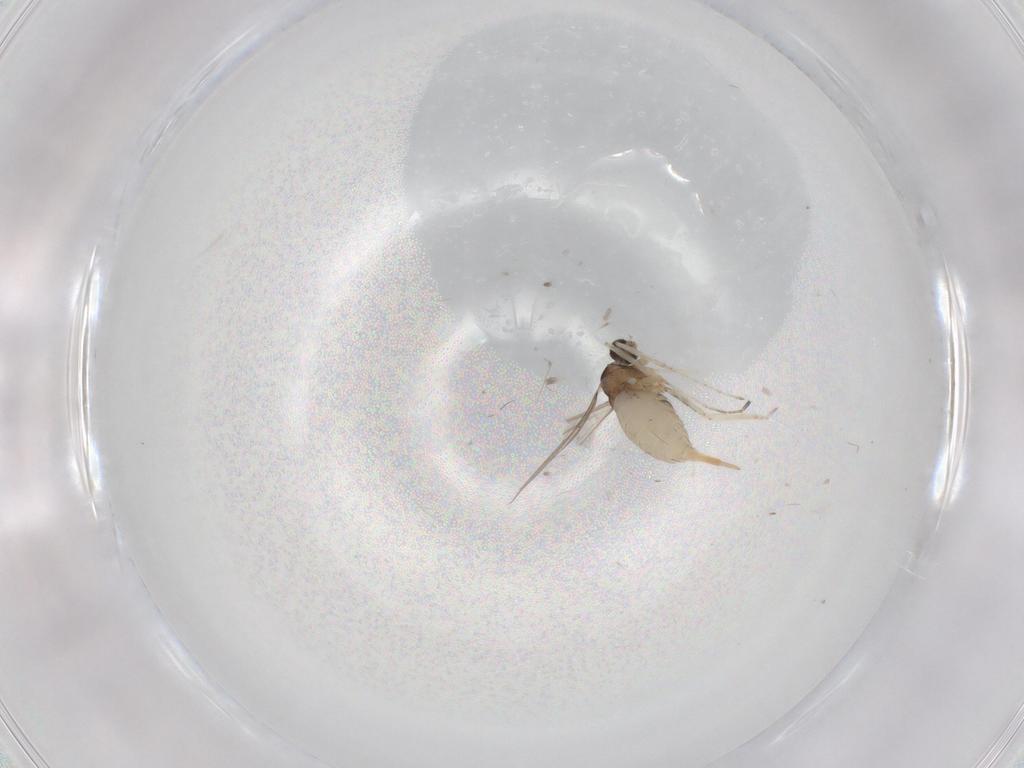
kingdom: Animalia
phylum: Arthropoda
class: Insecta
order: Diptera
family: Cecidomyiidae
